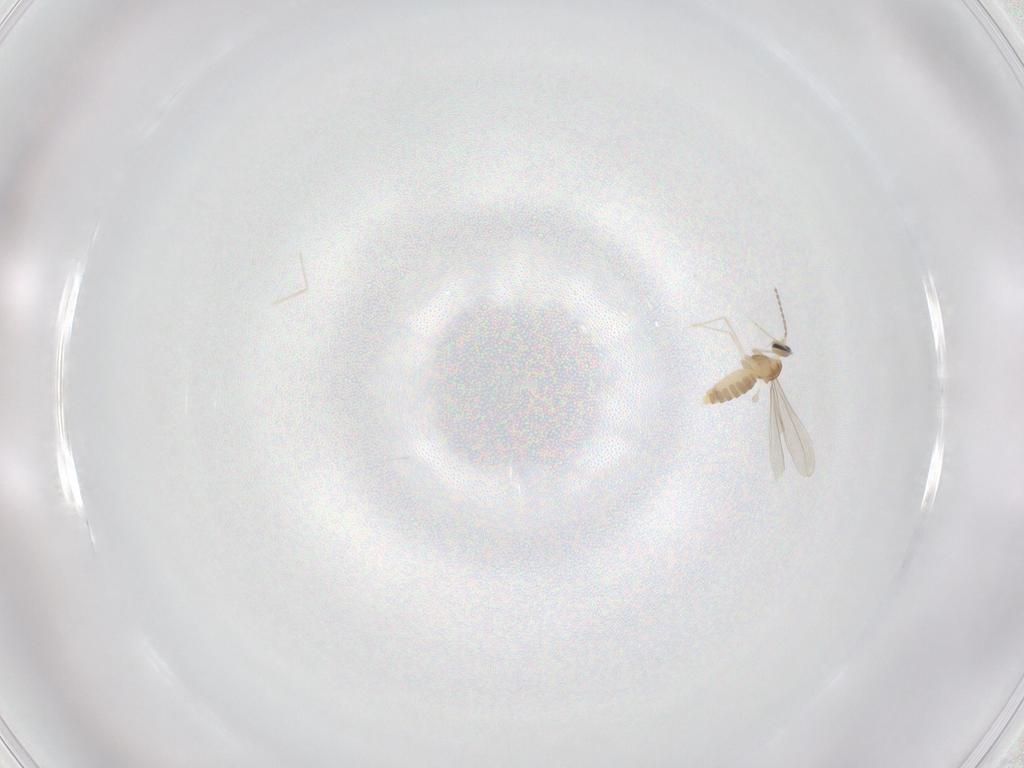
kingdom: Animalia
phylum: Arthropoda
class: Insecta
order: Diptera
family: Cecidomyiidae
